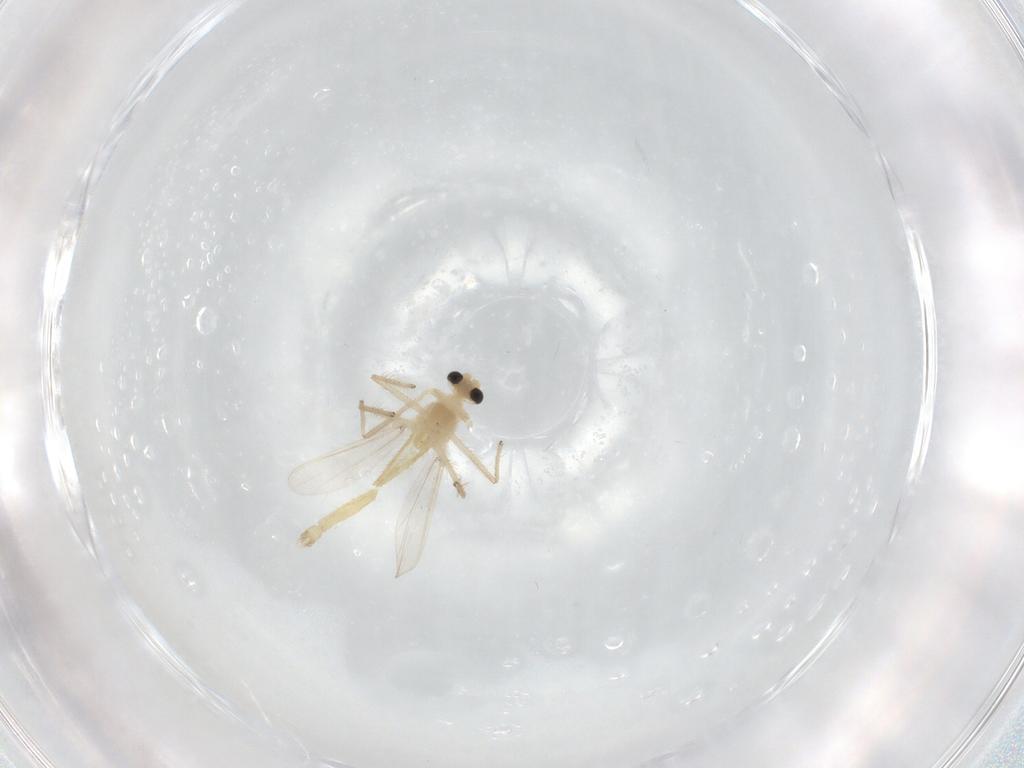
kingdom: Animalia
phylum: Arthropoda
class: Insecta
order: Diptera
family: Chironomidae
